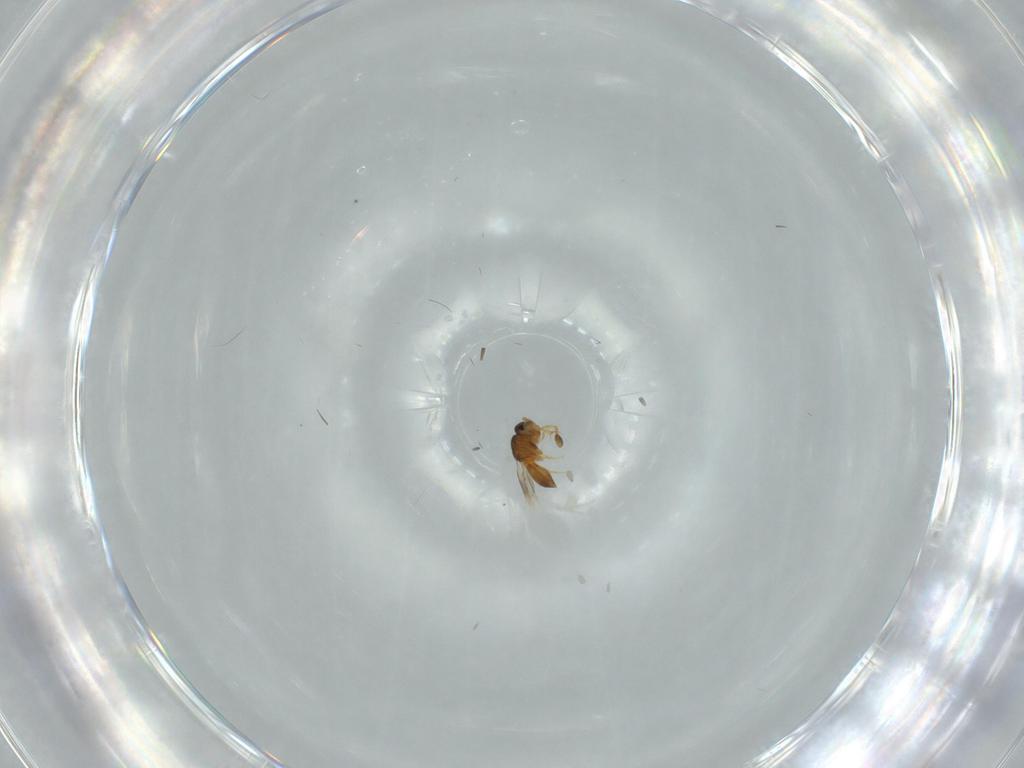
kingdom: Animalia
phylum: Arthropoda
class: Insecta
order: Hymenoptera
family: Scelionidae
